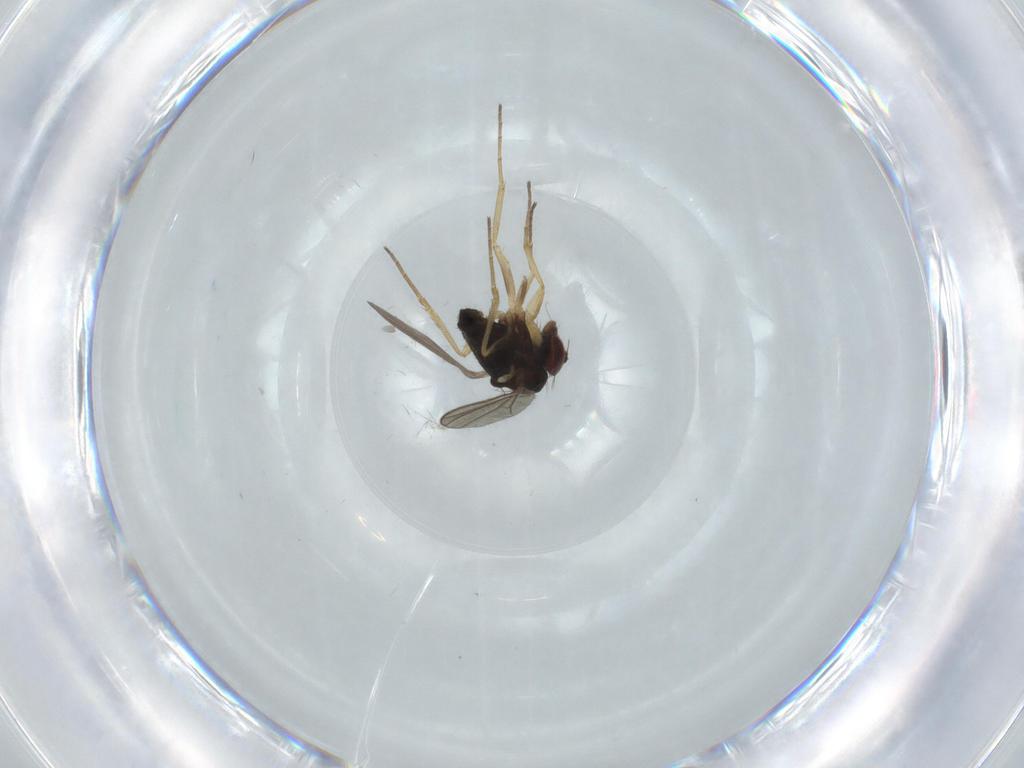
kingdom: Animalia
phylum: Arthropoda
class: Insecta
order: Diptera
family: Dolichopodidae
